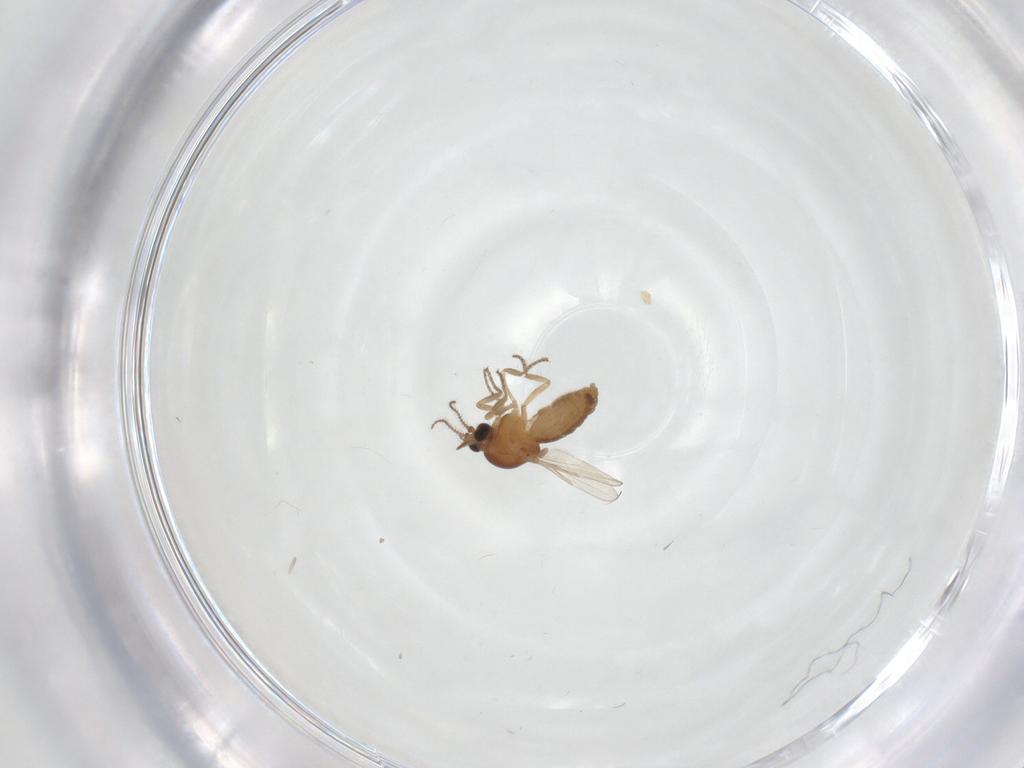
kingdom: Animalia
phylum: Arthropoda
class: Insecta
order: Diptera
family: Ceratopogonidae
